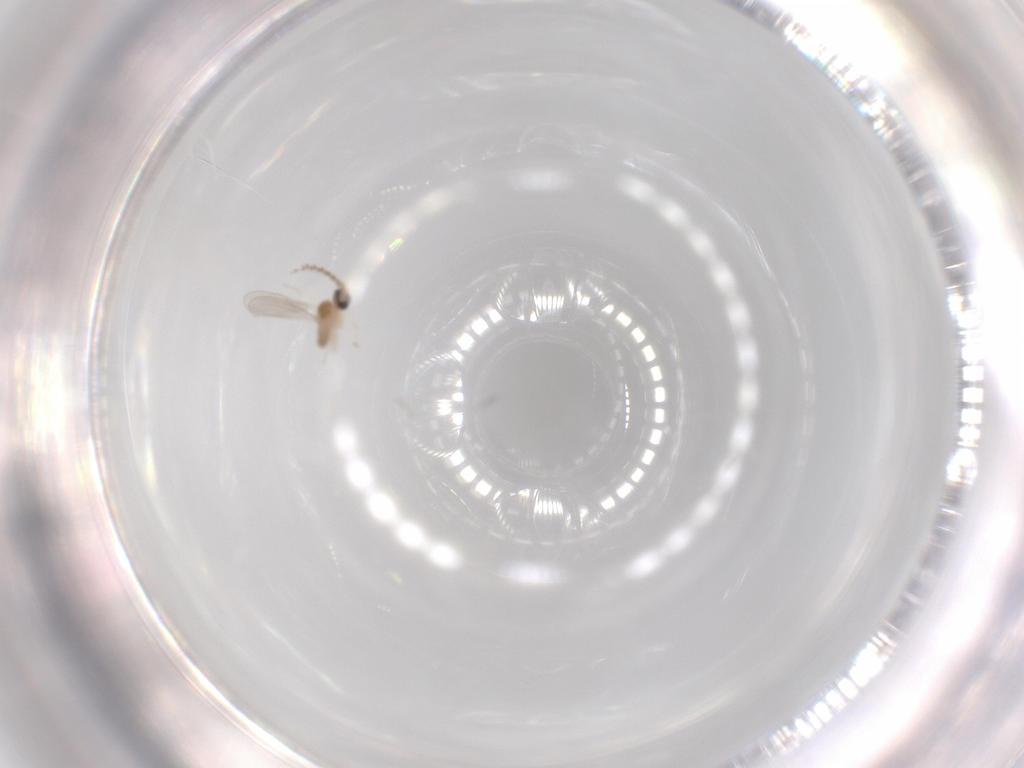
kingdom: Animalia
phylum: Arthropoda
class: Insecta
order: Diptera
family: Cecidomyiidae
